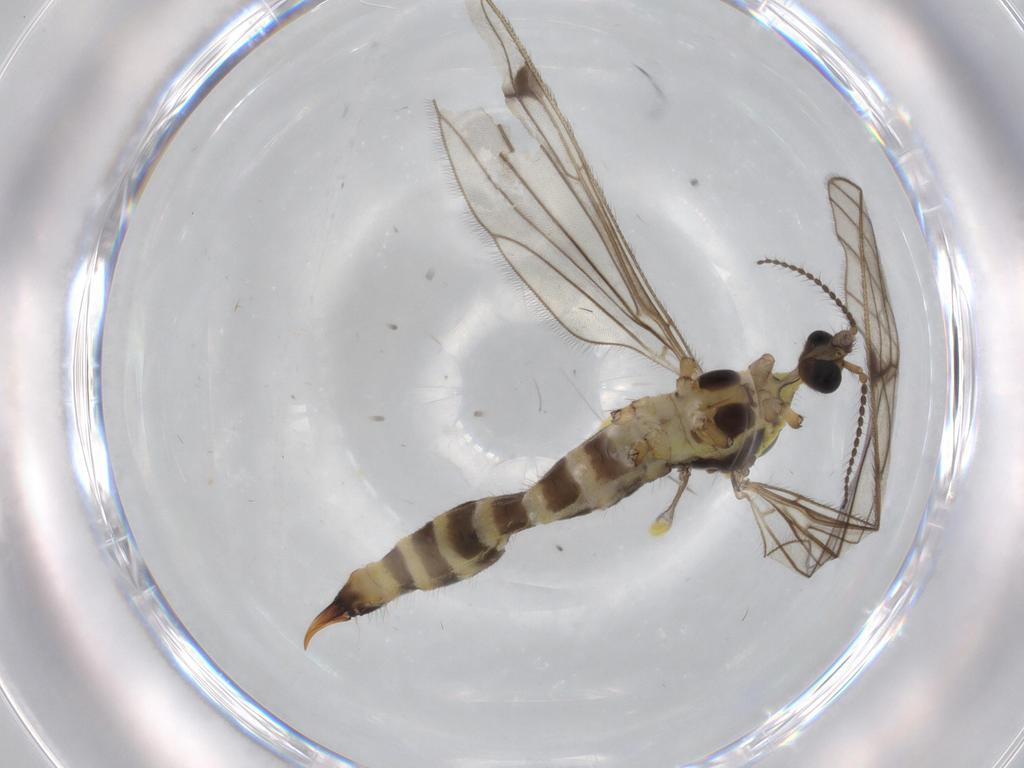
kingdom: Animalia
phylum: Arthropoda
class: Insecta
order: Diptera
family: Limoniidae
